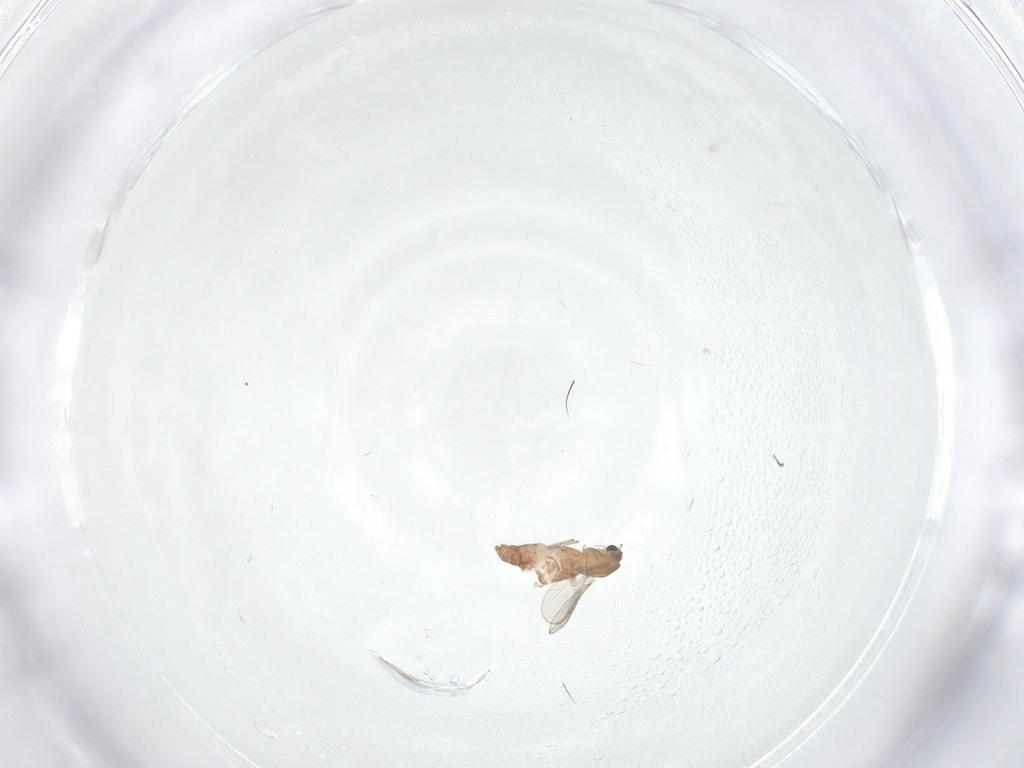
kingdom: Animalia
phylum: Arthropoda
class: Insecta
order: Diptera
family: Chironomidae
